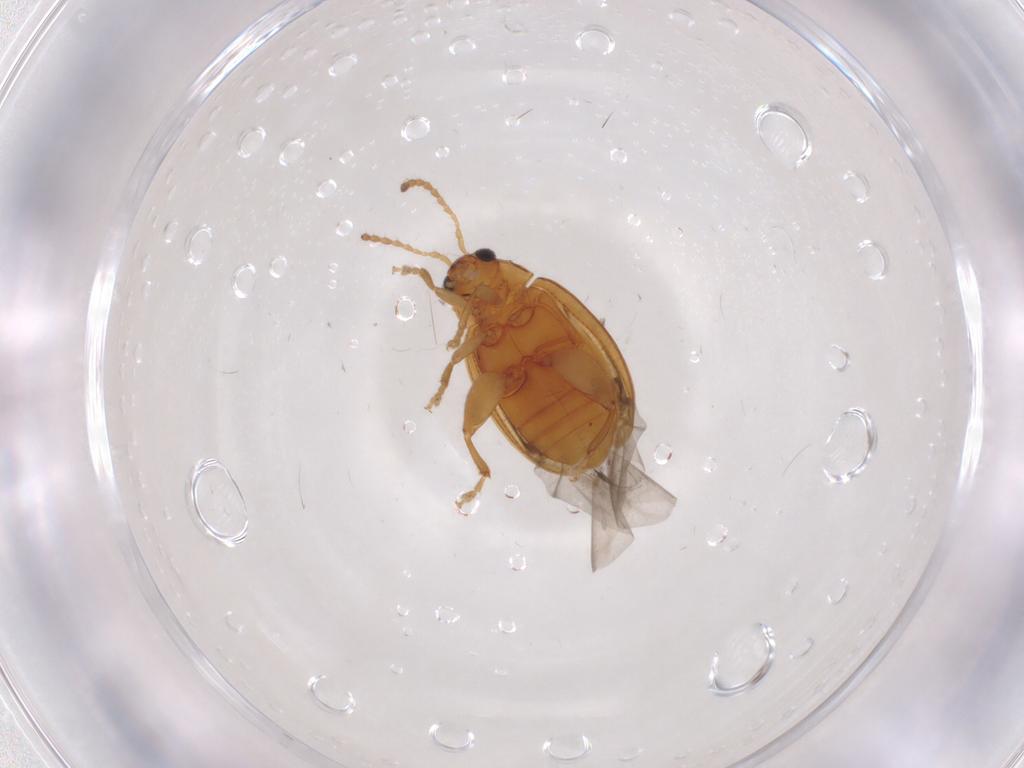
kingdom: Animalia
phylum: Arthropoda
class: Insecta
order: Coleoptera
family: Chrysomelidae
